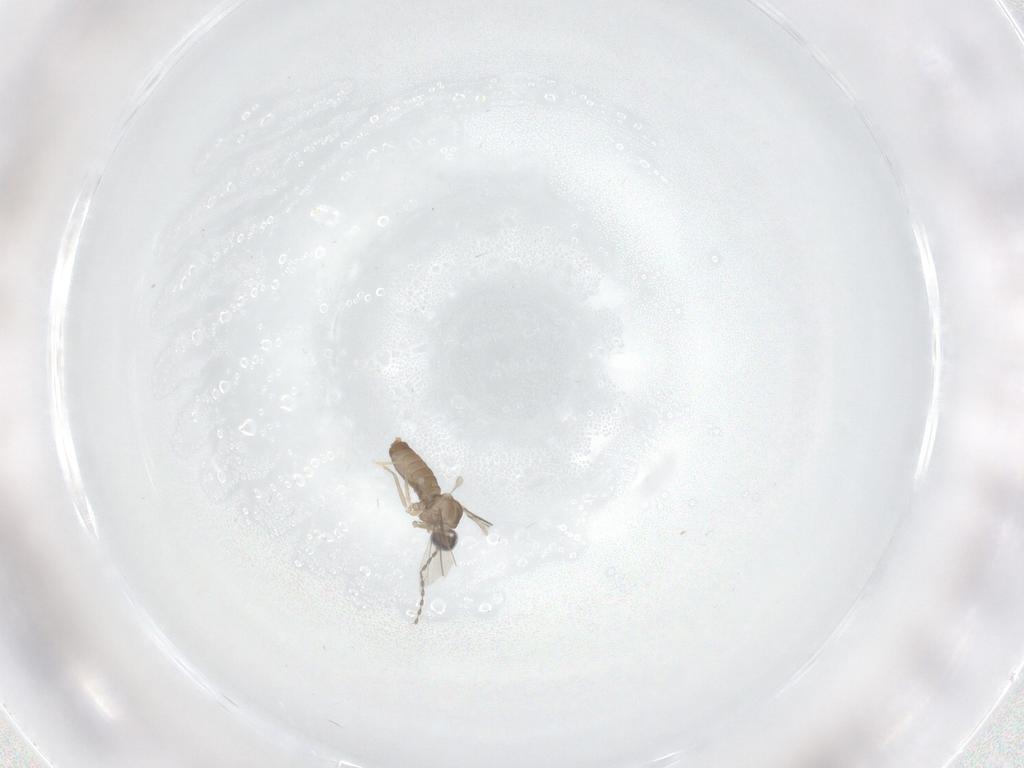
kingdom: Animalia
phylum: Arthropoda
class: Insecta
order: Diptera
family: Cecidomyiidae
